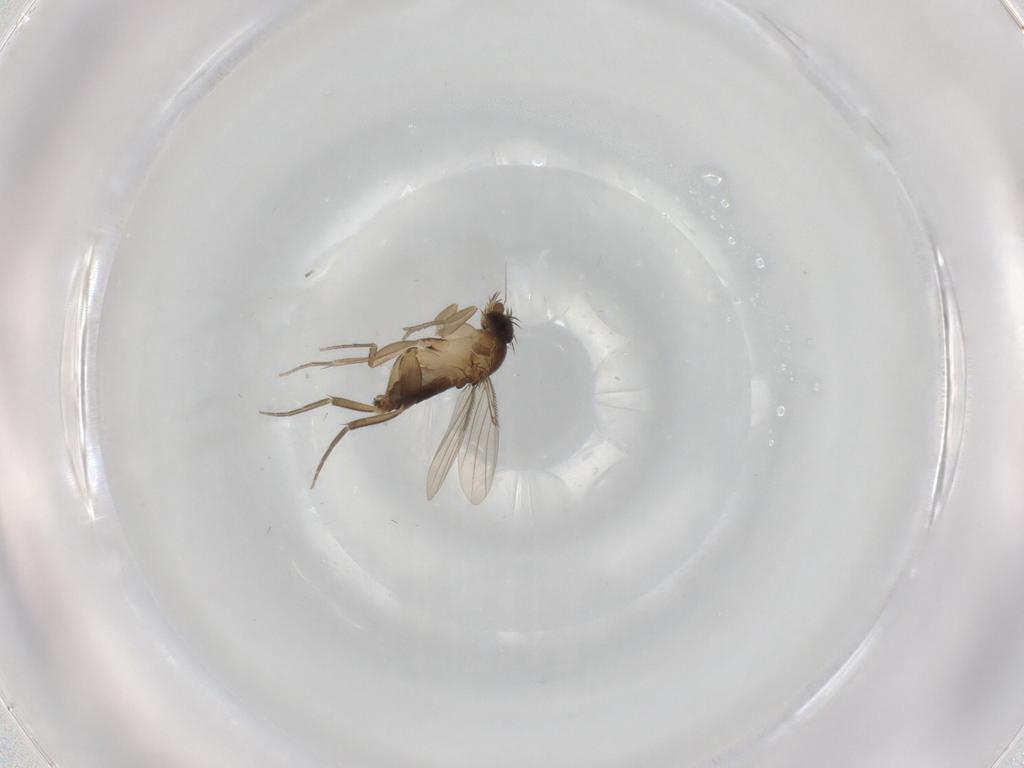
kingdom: Animalia
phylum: Arthropoda
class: Insecta
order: Diptera
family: Phoridae
